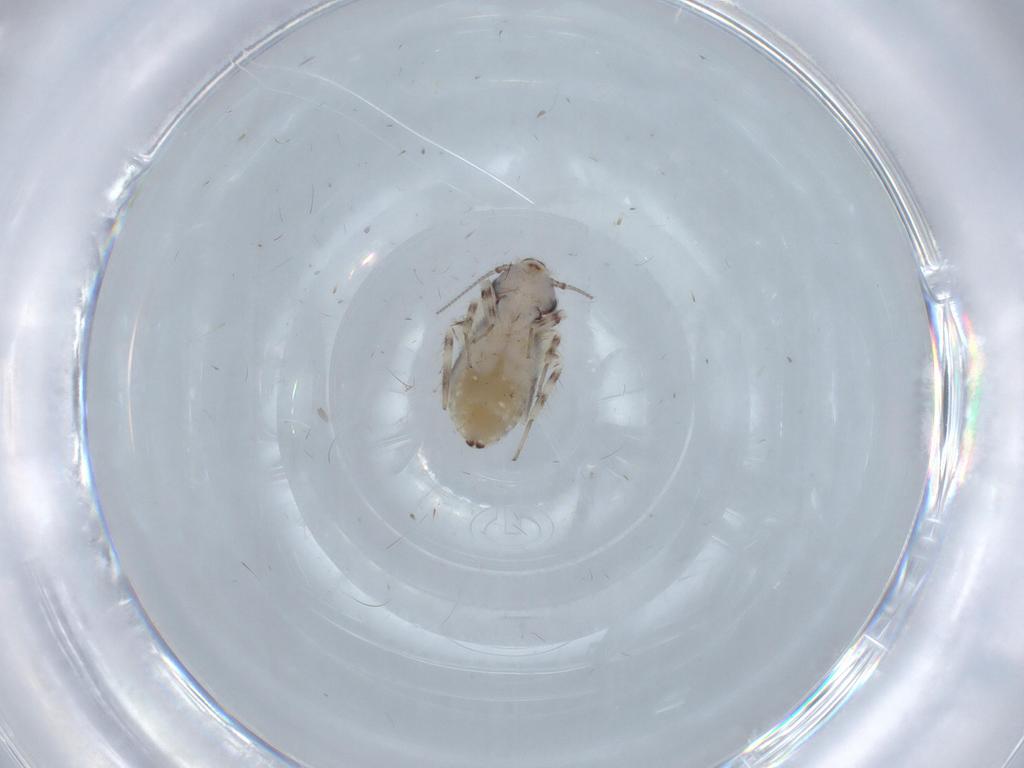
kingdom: Animalia
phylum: Arthropoda
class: Insecta
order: Psocodea
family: Lepidopsocidae
